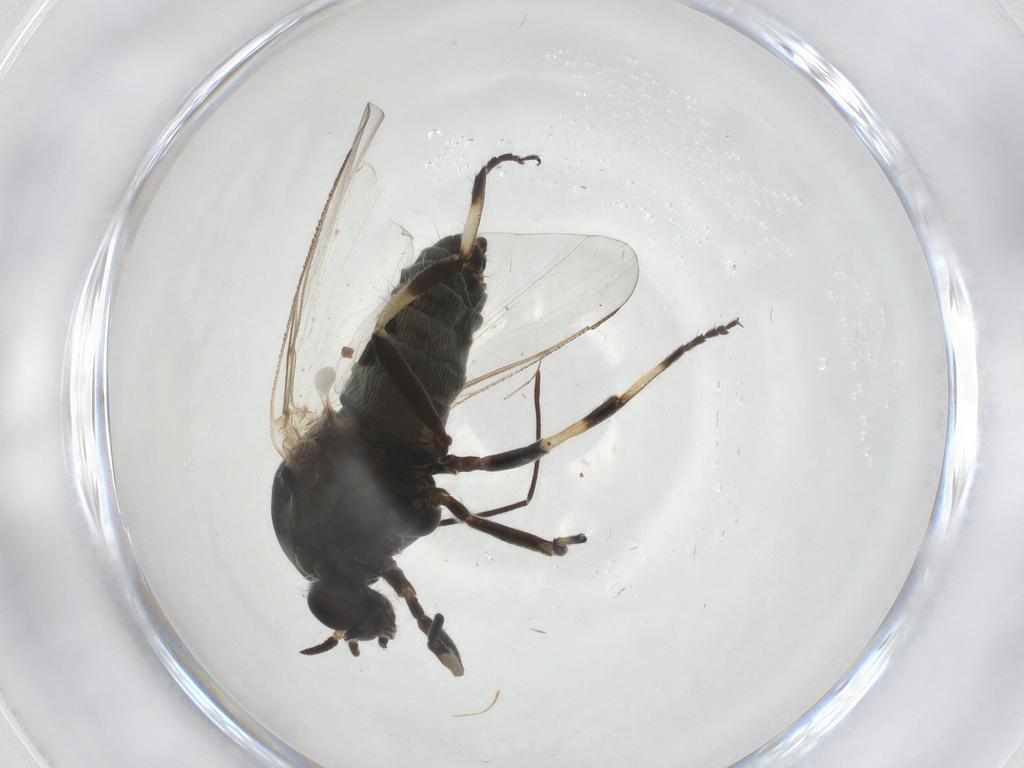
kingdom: Animalia
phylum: Arthropoda
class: Insecta
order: Diptera
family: Simuliidae
